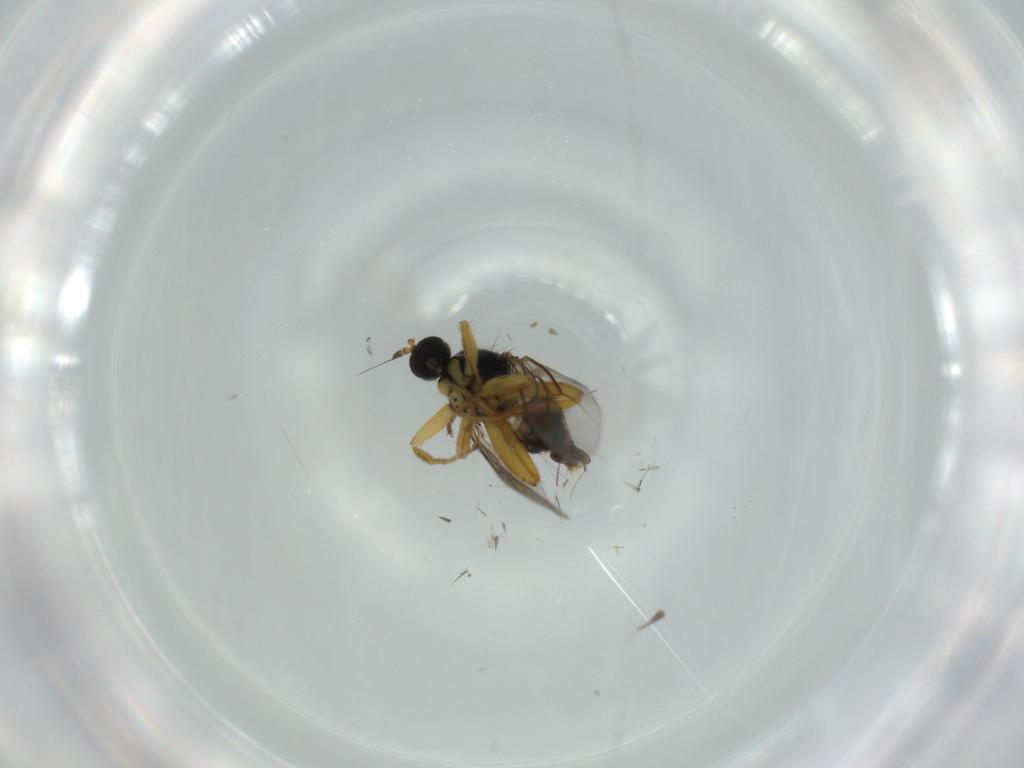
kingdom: Animalia
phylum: Arthropoda
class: Insecta
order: Diptera
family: Hybotidae
